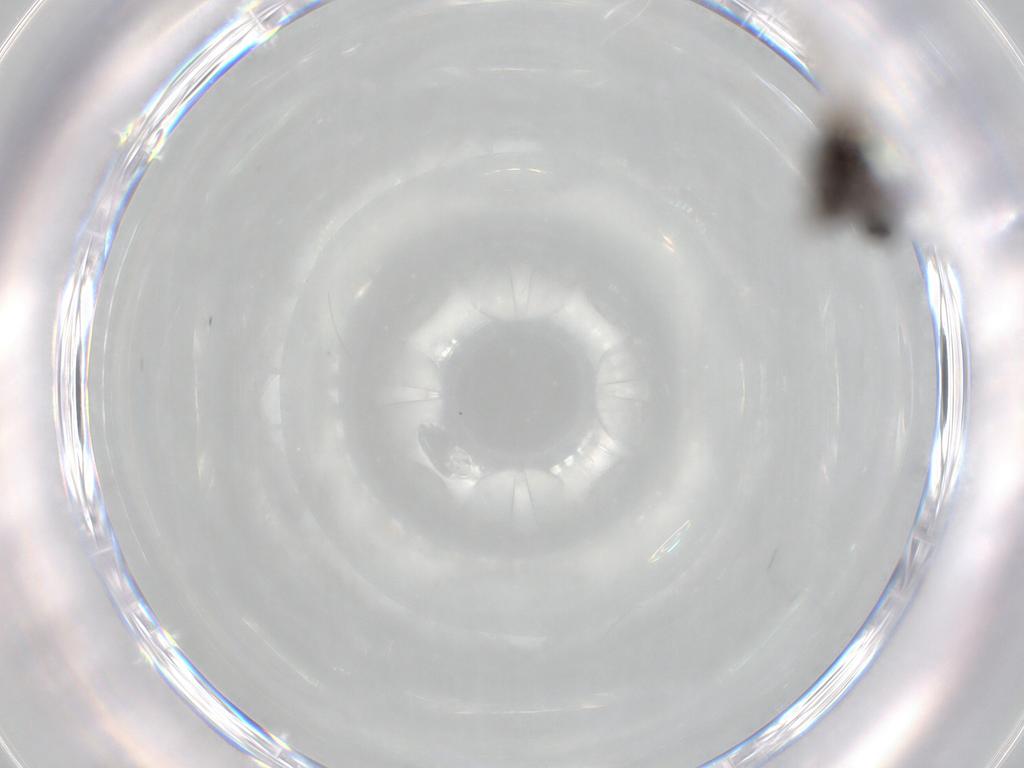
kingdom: Animalia
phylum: Arthropoda
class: Insecta
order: Diptera
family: Sciaridae
